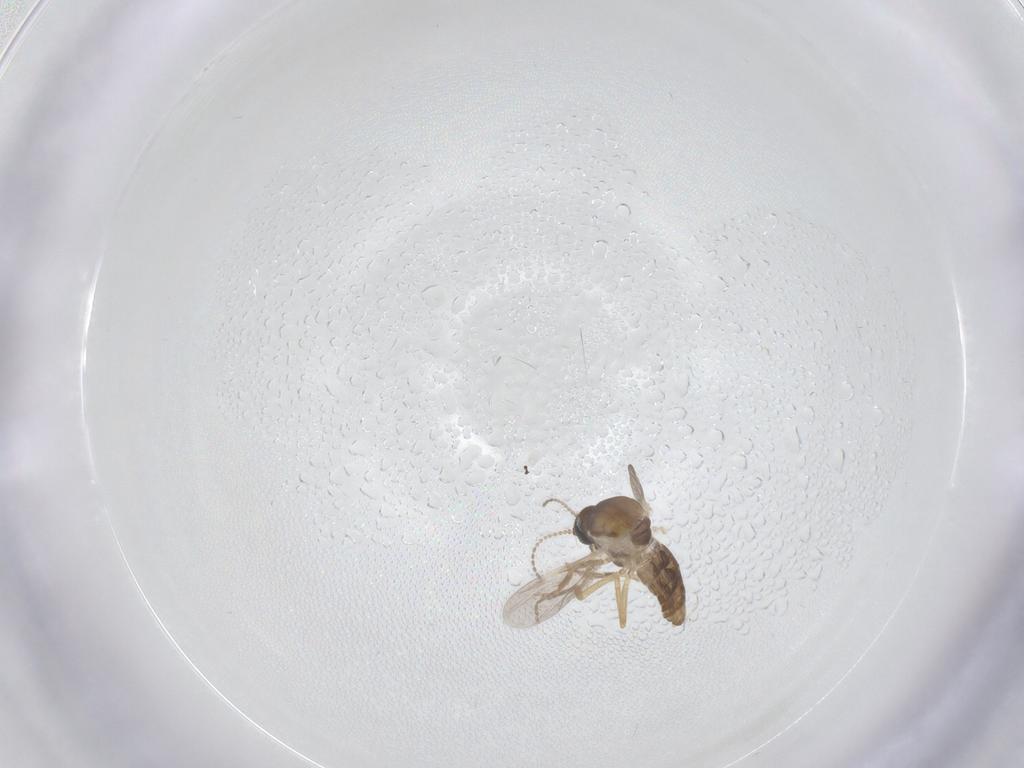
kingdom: Animalia
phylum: Arthropoda
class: Insecta
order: Diptera
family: Ceratopogonidae
